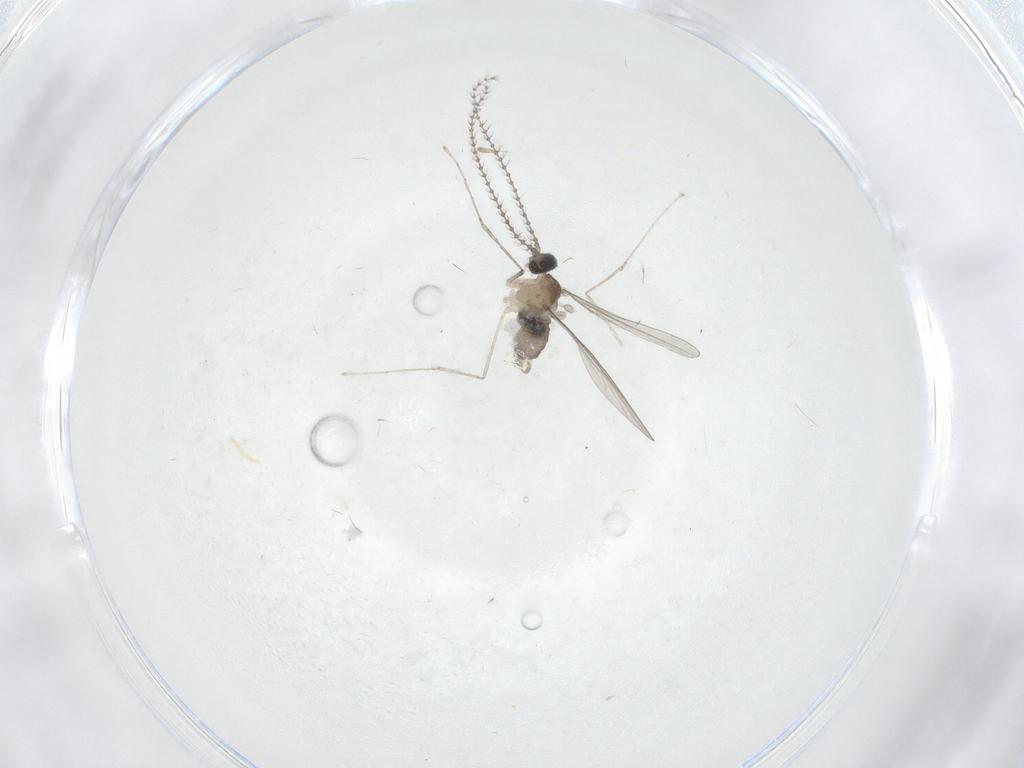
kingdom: Animalia
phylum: Arthropoda
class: Insecta
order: Diptera
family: Cecidomyiidae
